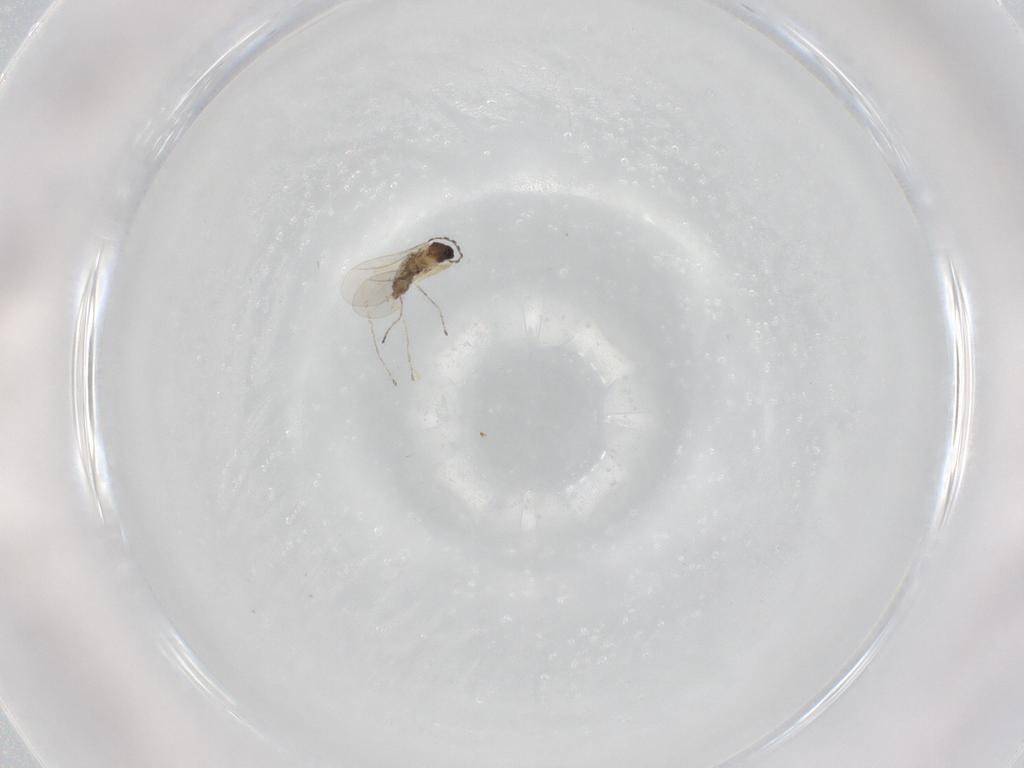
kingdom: Animalia
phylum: Arthropoda
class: Insecta
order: Diptera
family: Cecidomyiidae
